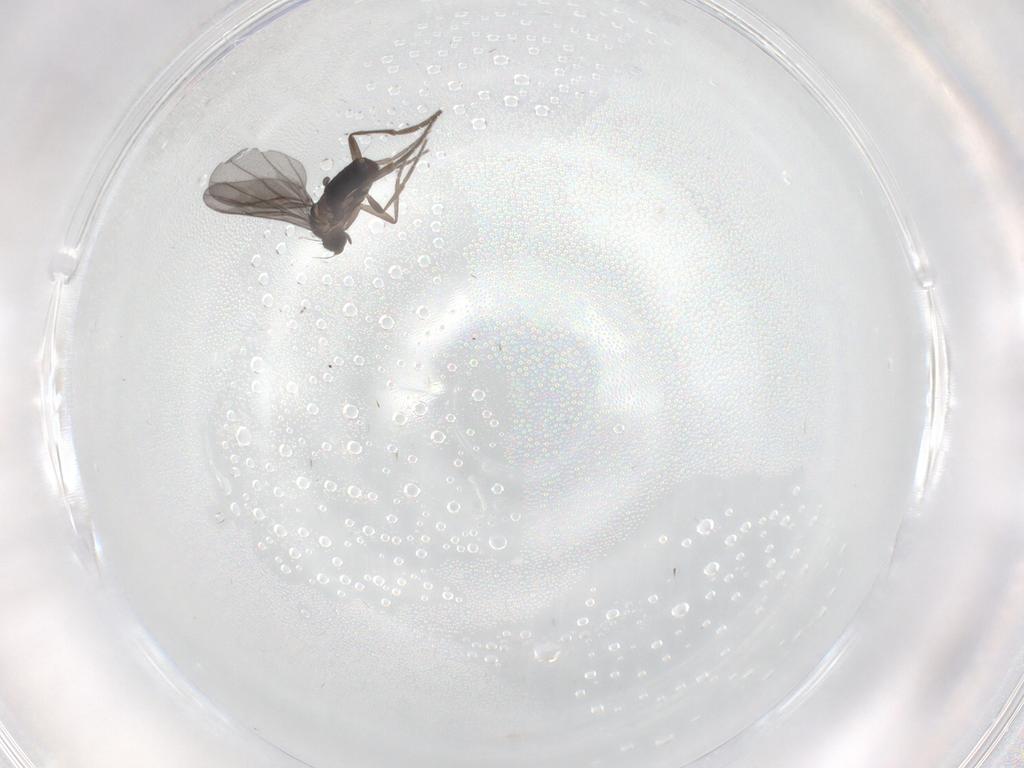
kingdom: Animalia
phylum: Arthropoda
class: Insecta
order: Diptera
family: Phoridae
